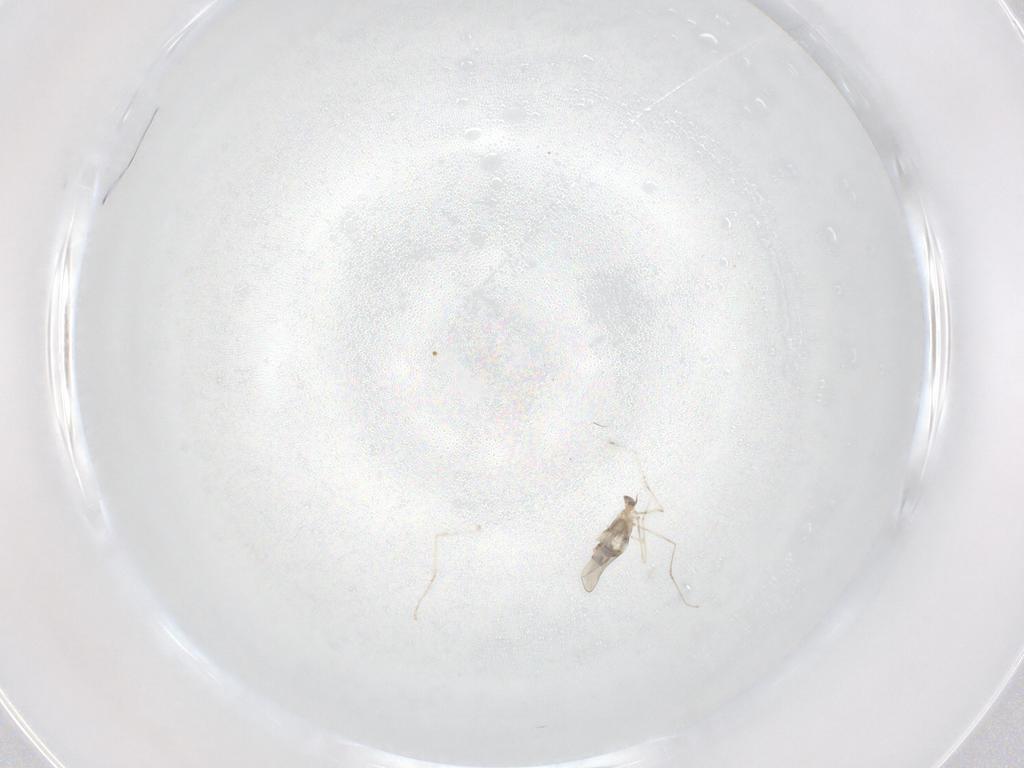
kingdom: Animalia
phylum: Arthropoda
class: Insecta
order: Diptera
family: Cecidomyiidae
